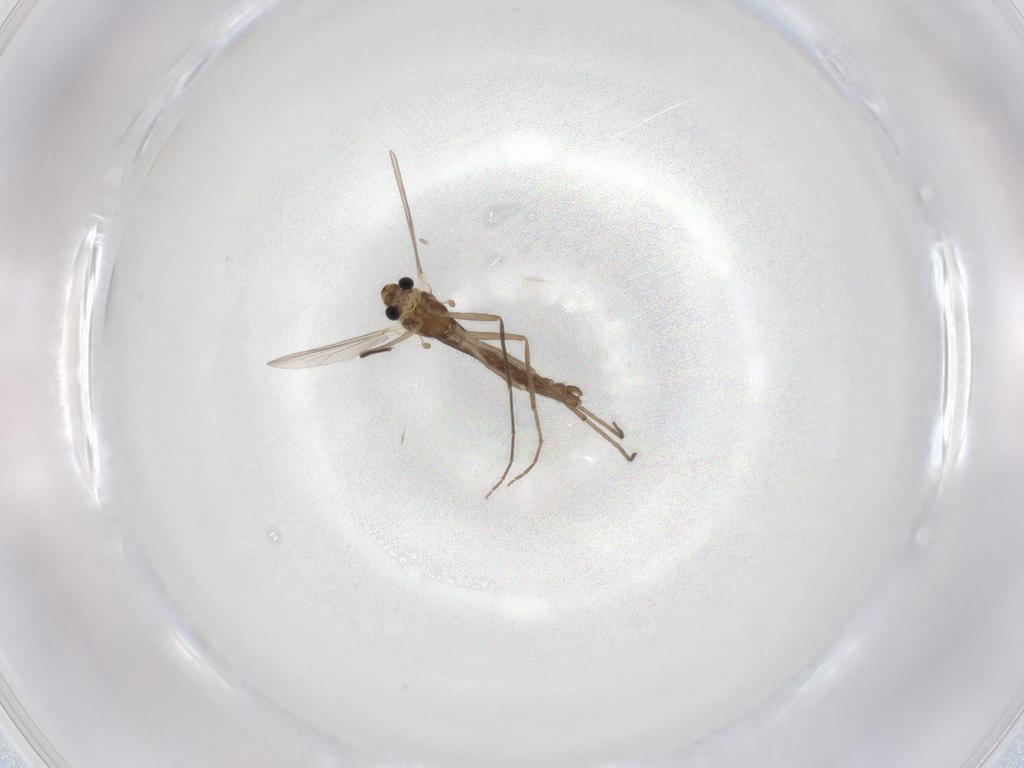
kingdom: Animalia
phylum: Arthropoda
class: Insecta
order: Diptera
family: Chironomidae
